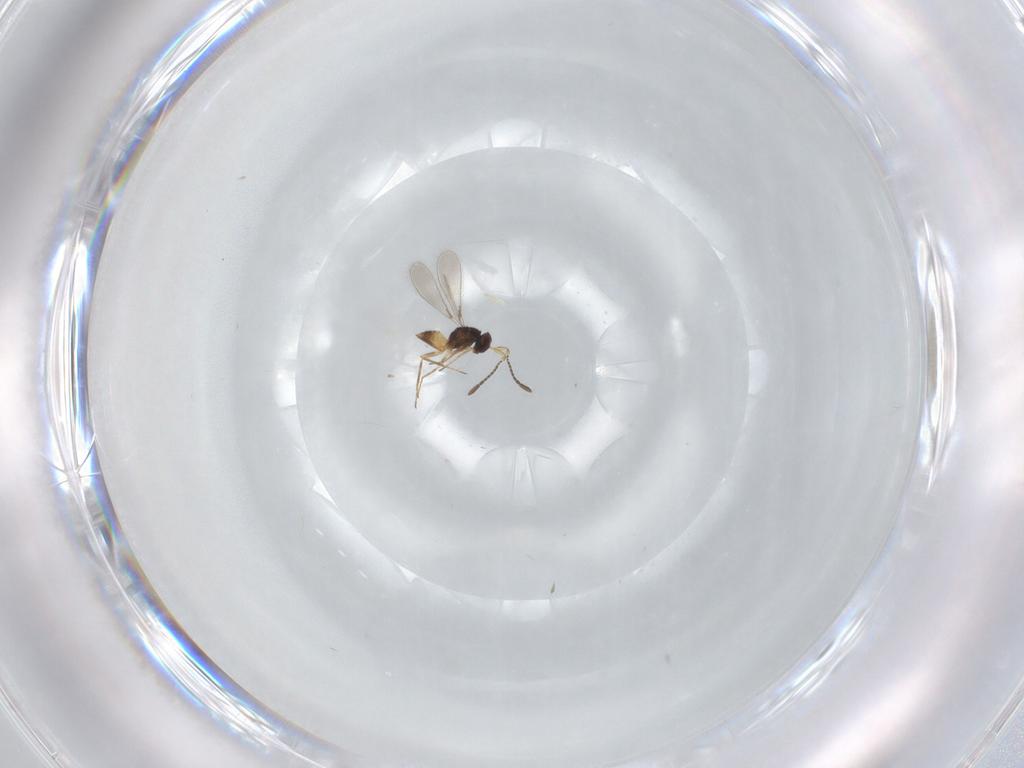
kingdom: Animalia
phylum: Arthropoda
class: Insecta
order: Hymenoptera
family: Mymaridae
